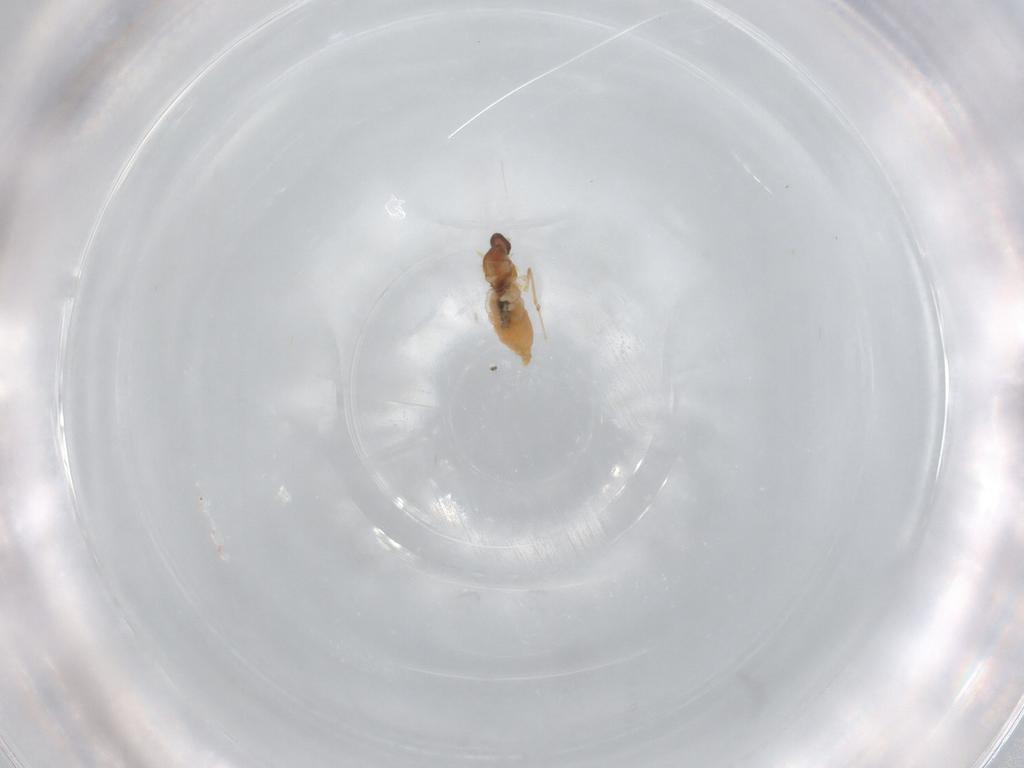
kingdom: Animalia
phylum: Arthropoda
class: Insecta
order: Diptera
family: Cecidomyiidae
